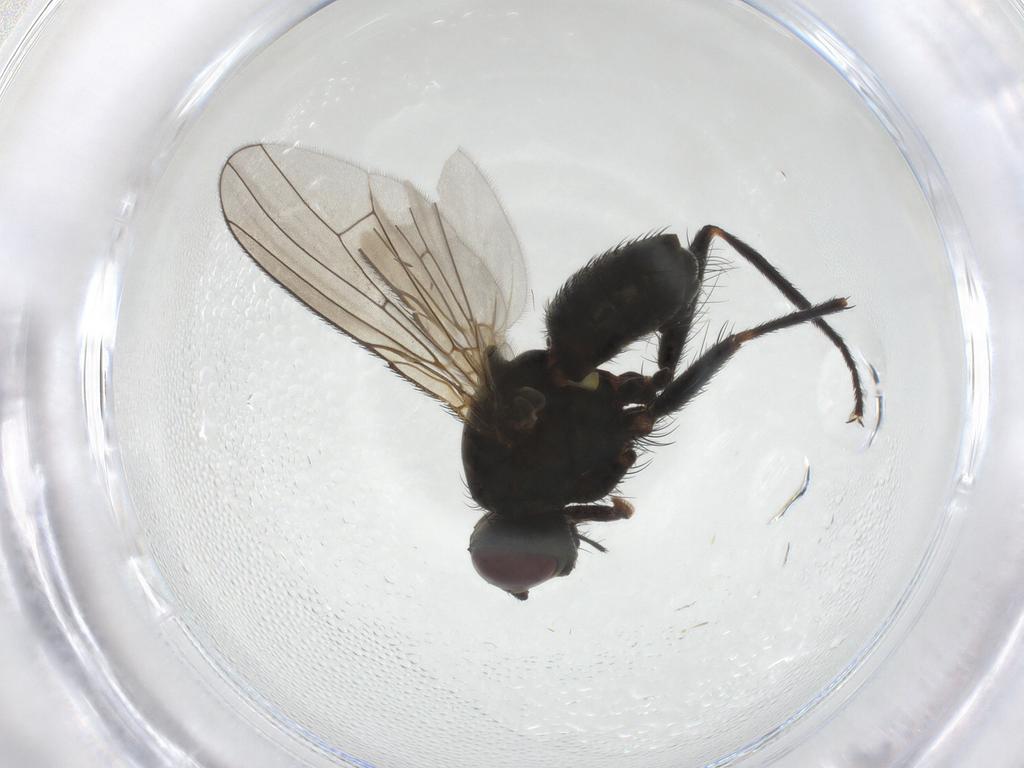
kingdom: Animalia
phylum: Arthropoda
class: Insecta
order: Diptera
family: Muscidae
